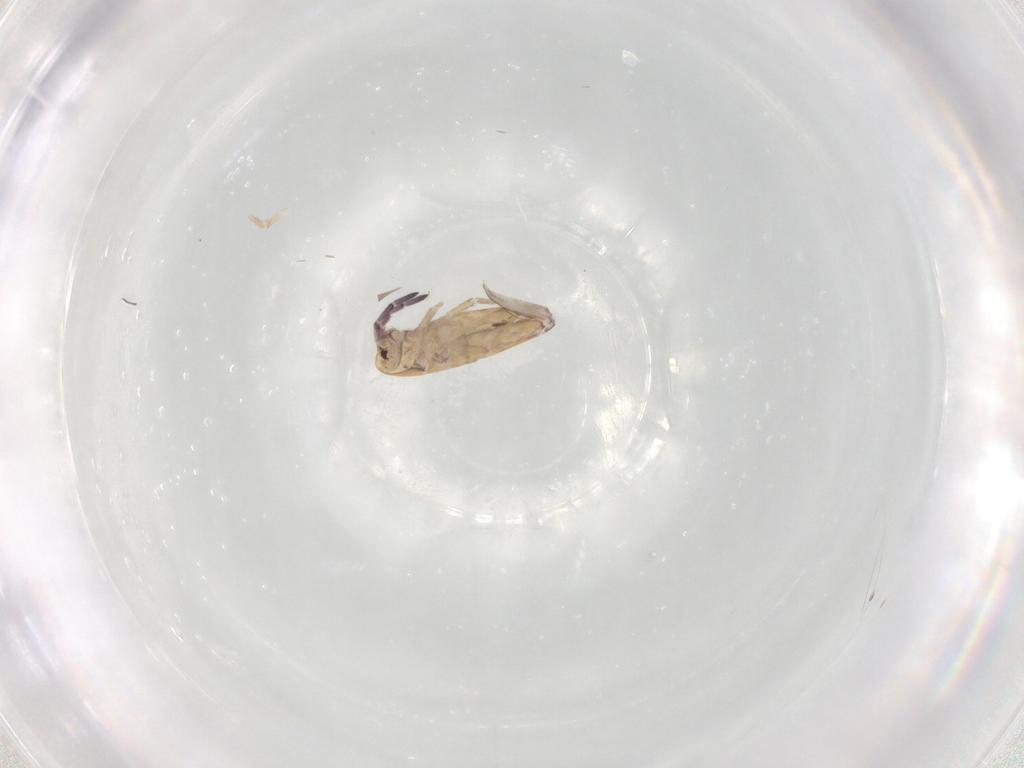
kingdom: Animalia
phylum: Arthropoda
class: Collembola
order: Entomobryomorpha
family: Entomobryidae
